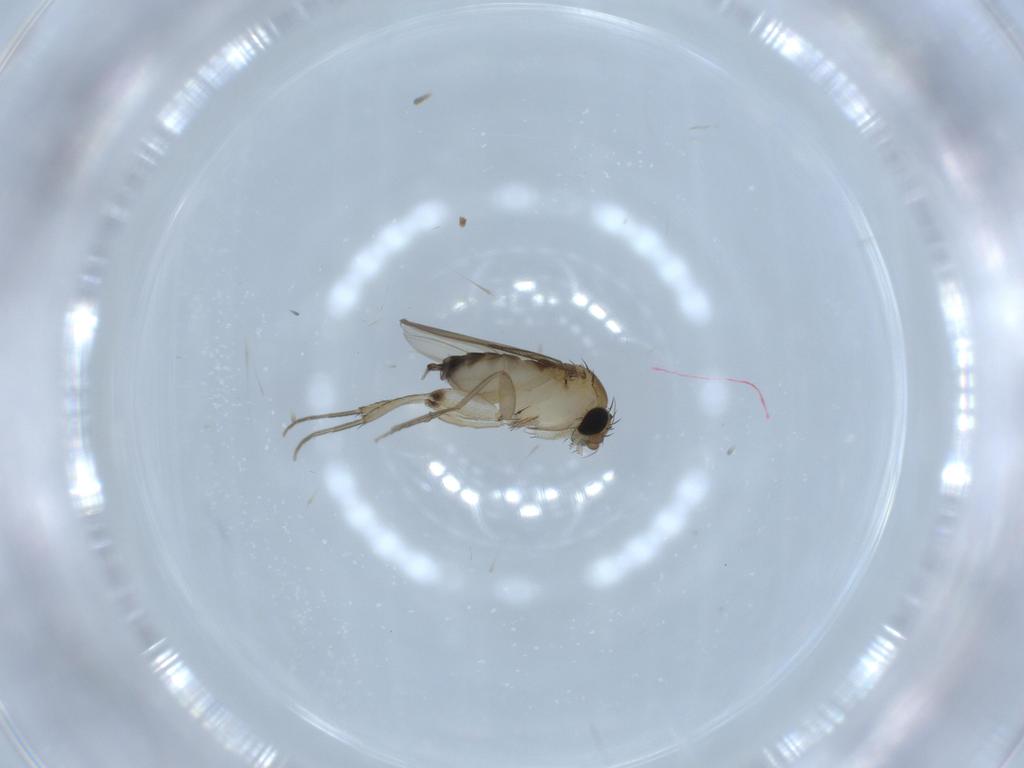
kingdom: Animalia
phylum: Arthropoda
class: Insecta
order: Diptera
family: Phoridae
